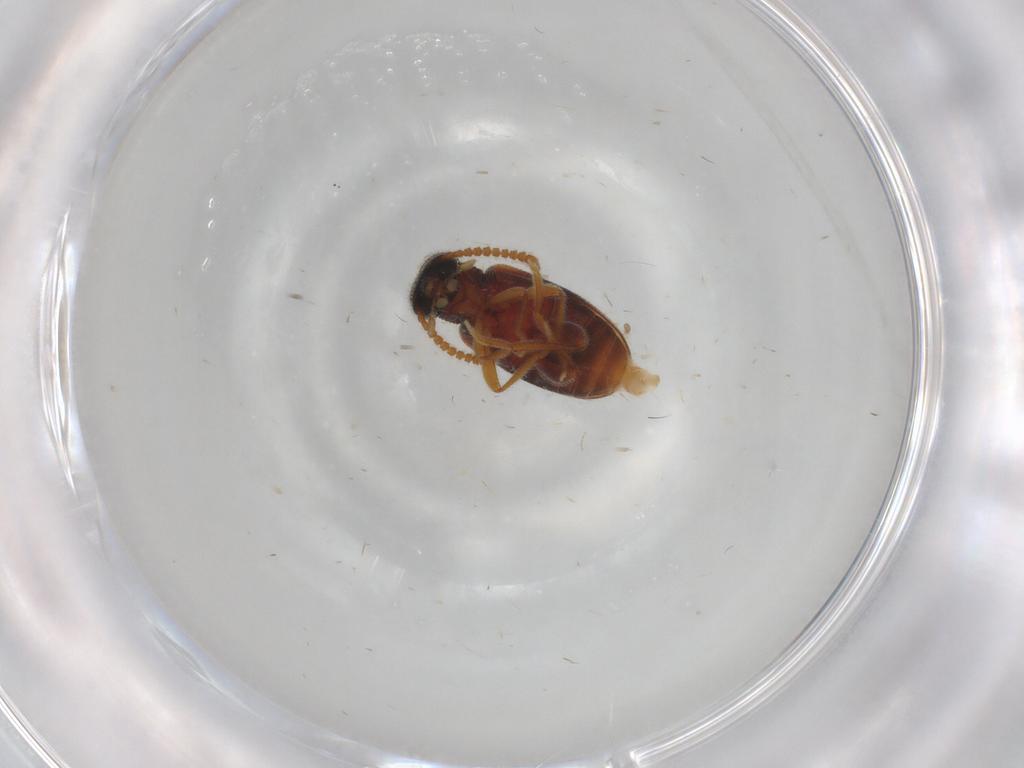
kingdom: Animalia
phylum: Arthropoda
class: Insecta
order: Coleoptera
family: Aderidae
